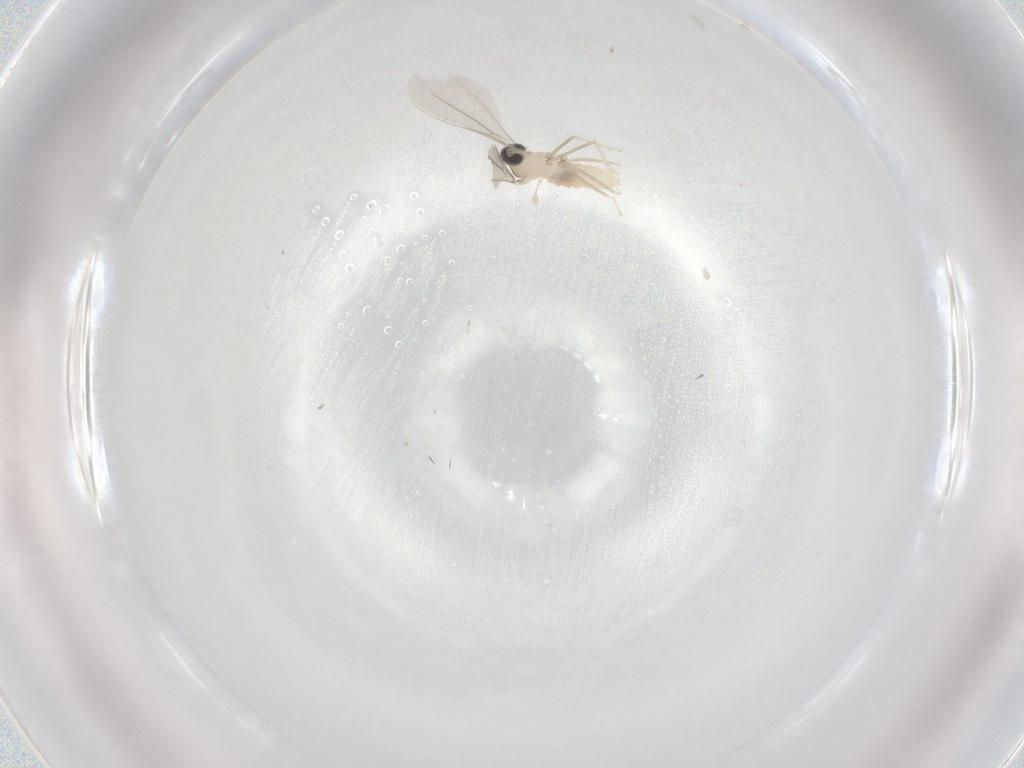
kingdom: Animalia
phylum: Arthropoda
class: Insecta
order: Diptera
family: Cecidomyiidae
